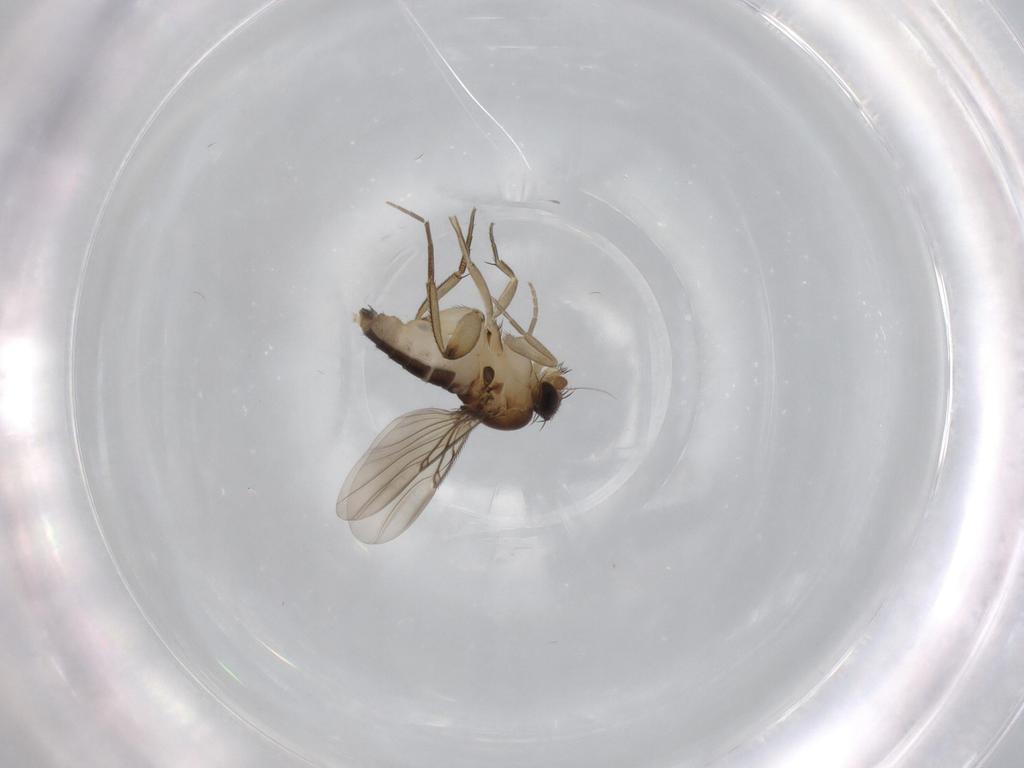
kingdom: Animalia
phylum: Arthropoda
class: Insecta
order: Diptera
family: Phoridae
